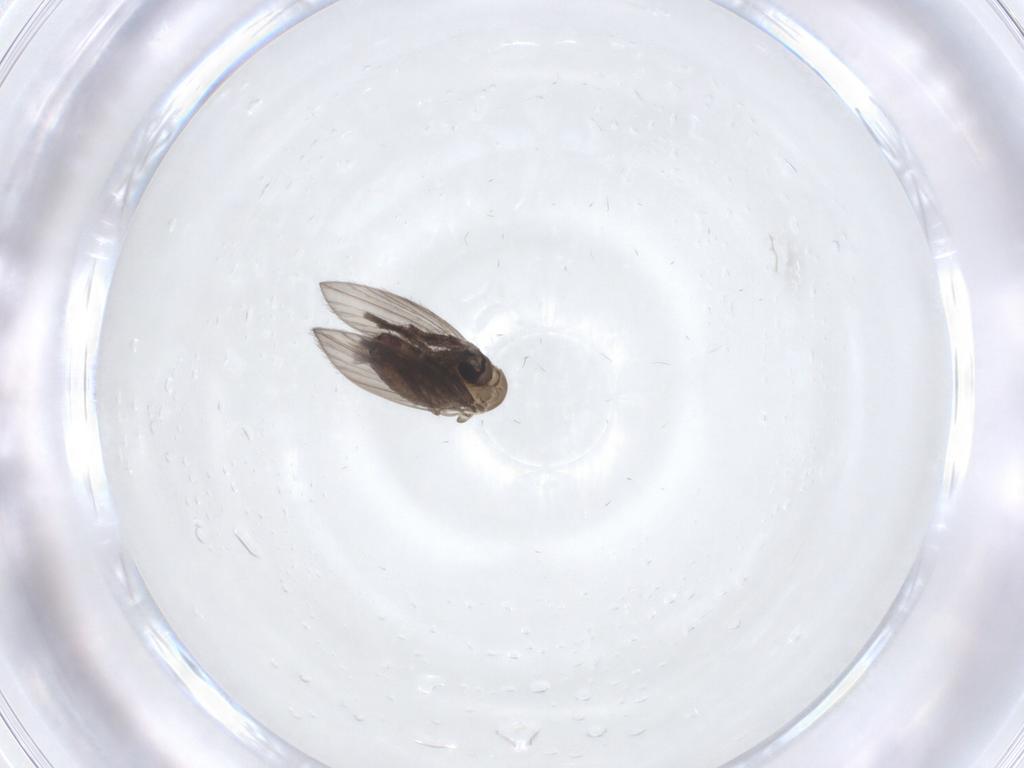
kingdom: Animalia
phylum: Arthropoda
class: Insecta
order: Diptera
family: Psychodidae
